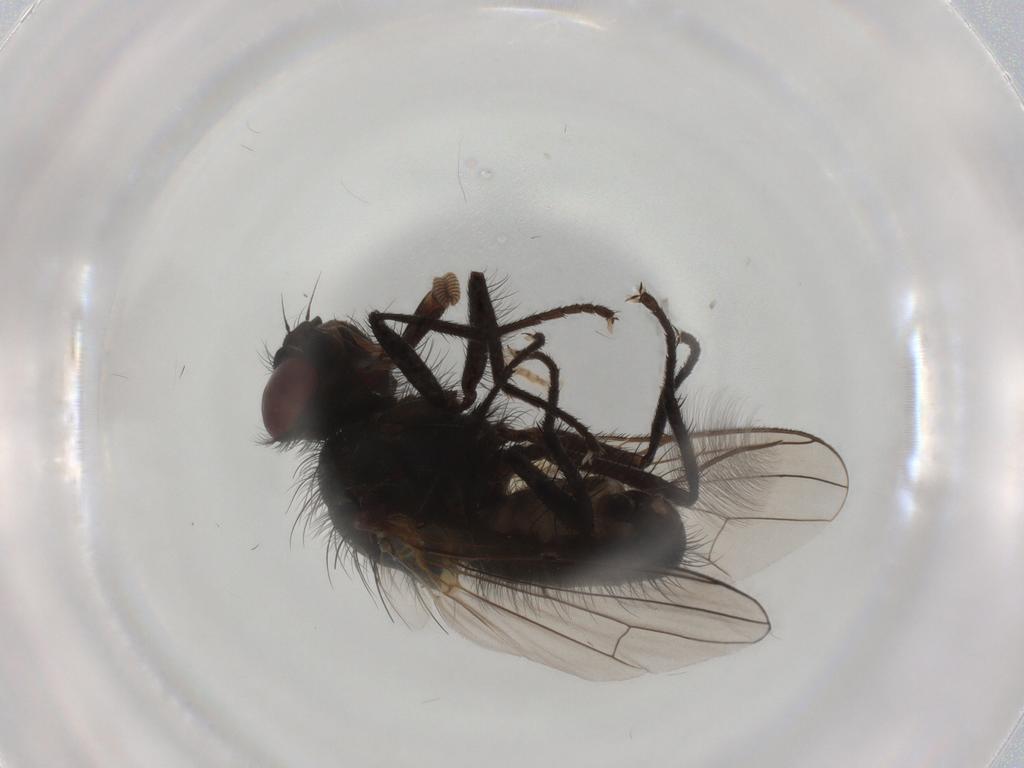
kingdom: Animalia
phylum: Arthropoda
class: Insecta
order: Diptera
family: Anthomyiidae
